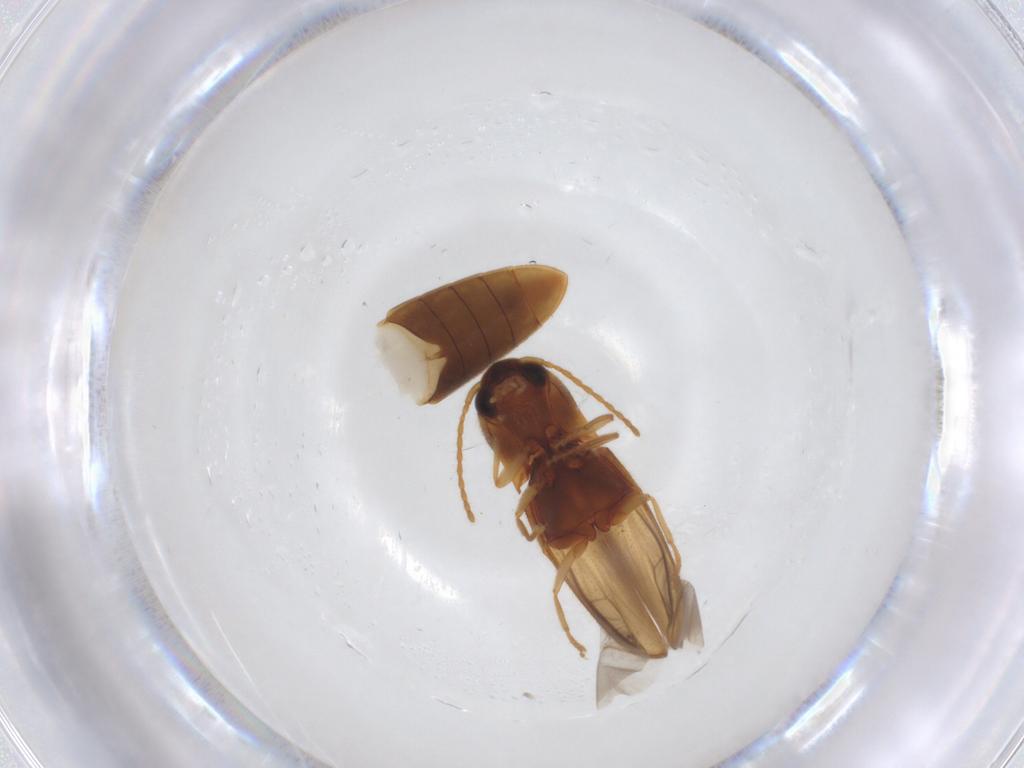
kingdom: Animalia
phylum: Arthropoda
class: Insecta
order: Coleoptera
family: Elateridae
